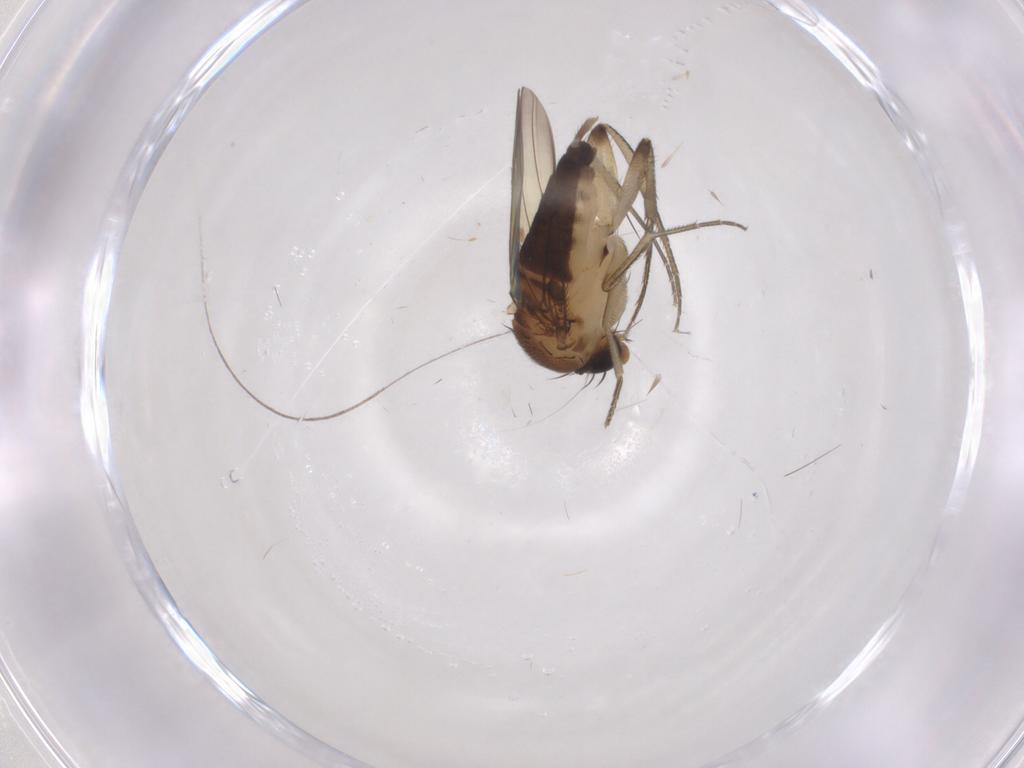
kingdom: Animalia
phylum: Arthropoda
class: Insecta
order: Diptera
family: Phoridae
